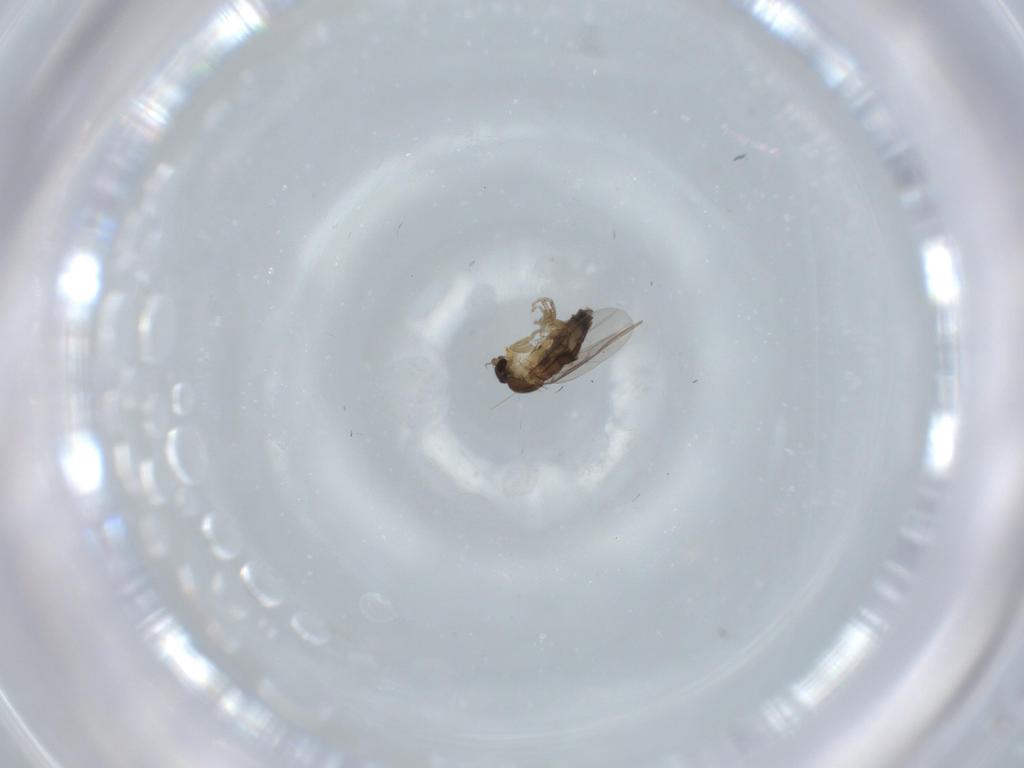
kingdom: Animalia
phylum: Arthropoda
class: Insecta
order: Diptera
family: Phoridae
